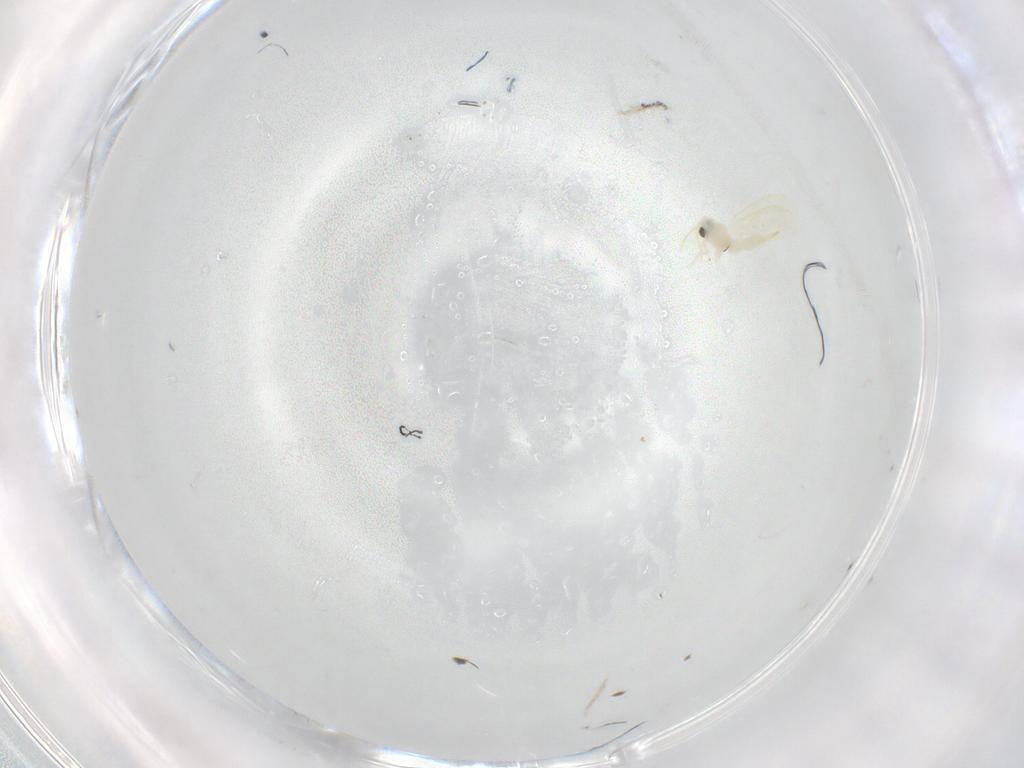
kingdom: Animalia
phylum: Arthropoda
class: Insecta
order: Hemiptera
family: Aleyrodidae
